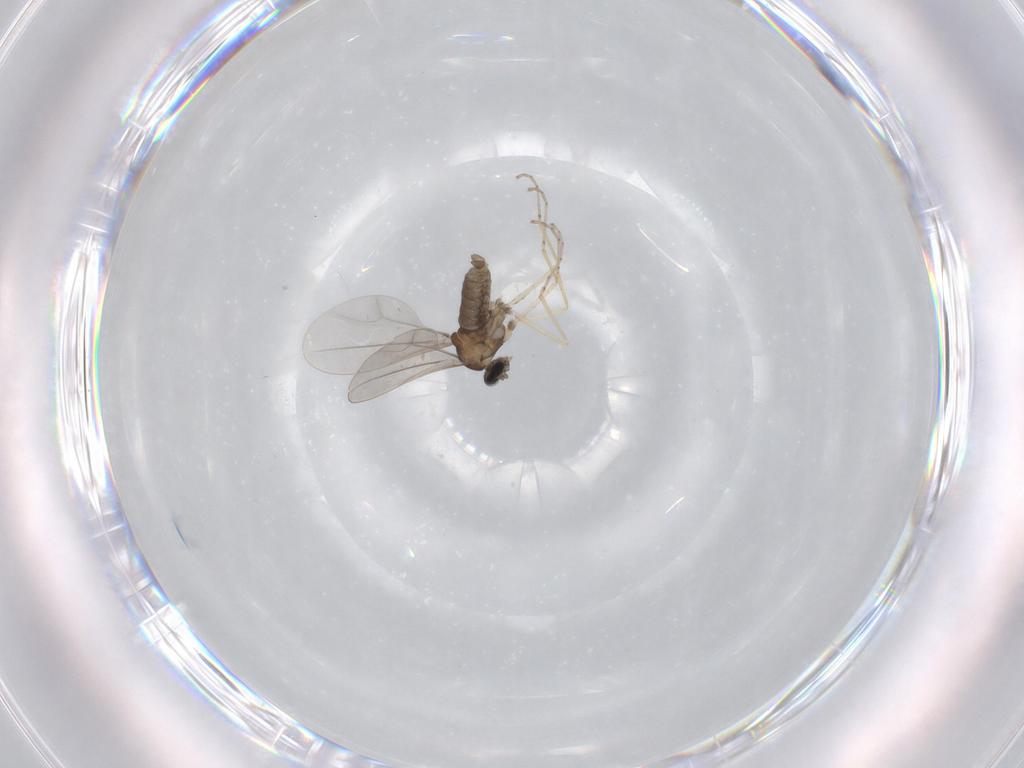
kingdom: Animalia
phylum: Arthropoda
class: Insecta
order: Diptera
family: Cecidomyiidae
